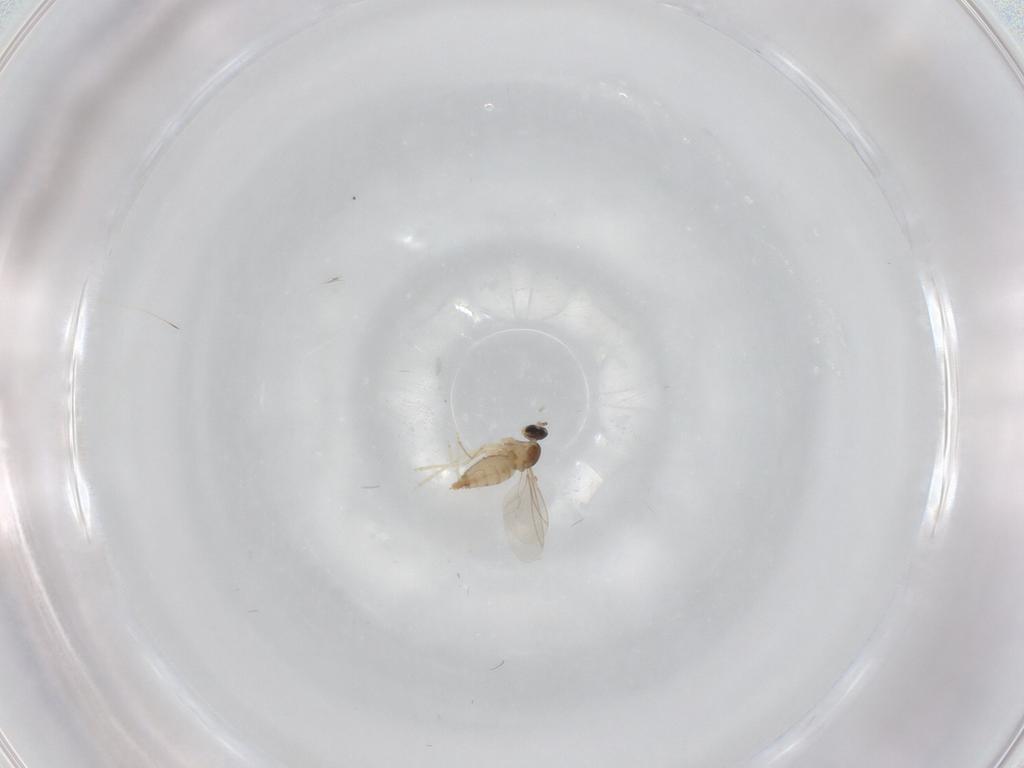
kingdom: Animalia
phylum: Arthropoda
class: Insecta
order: Diptera
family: Cecidomyiidae
